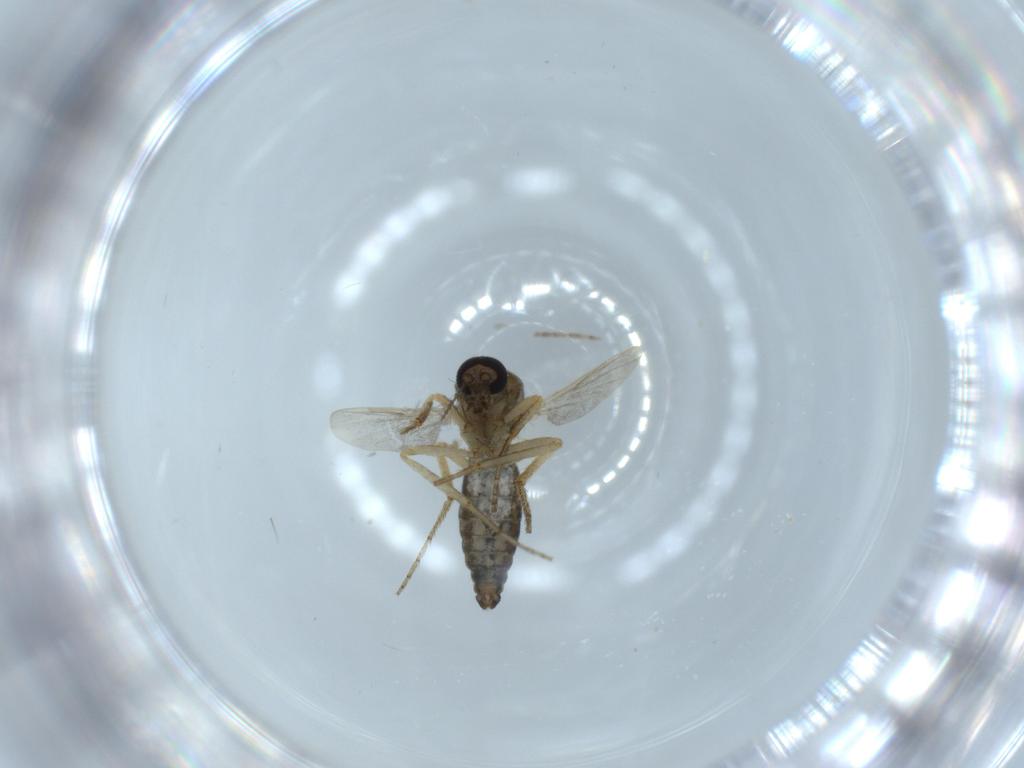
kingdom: Animalia
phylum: Arthropoda
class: Insecta
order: Diptera
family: Ceratopogonidae
